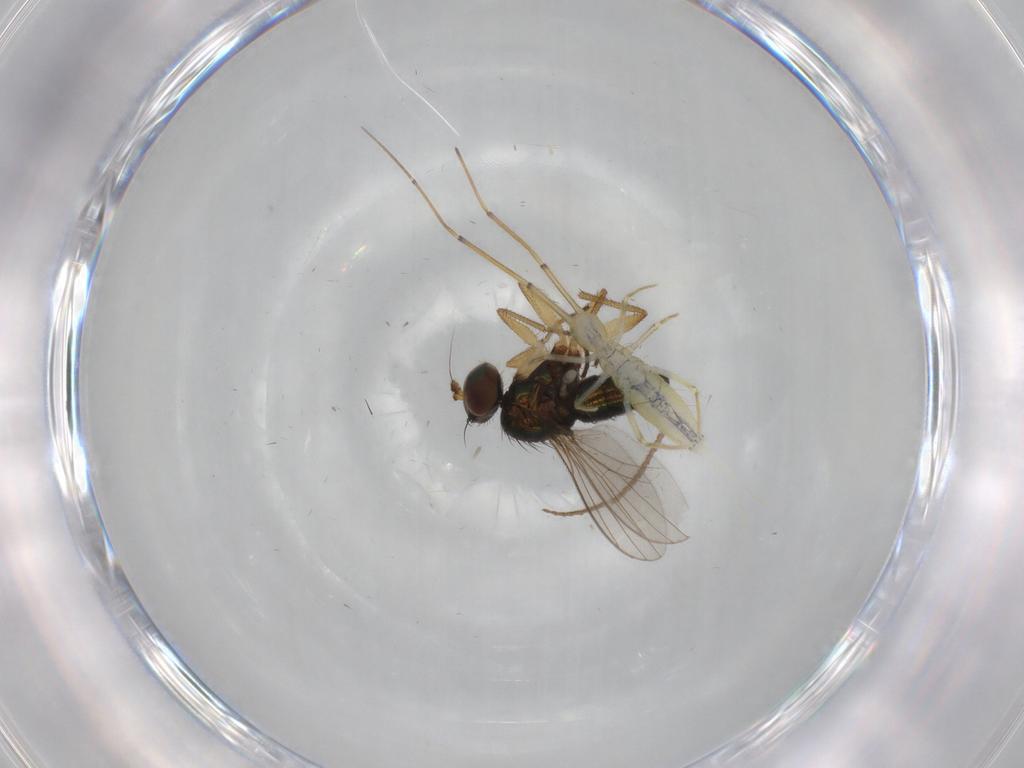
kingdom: Animalia
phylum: Arthropoda
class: Insecta
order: Diptera
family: Dolichopodidae
